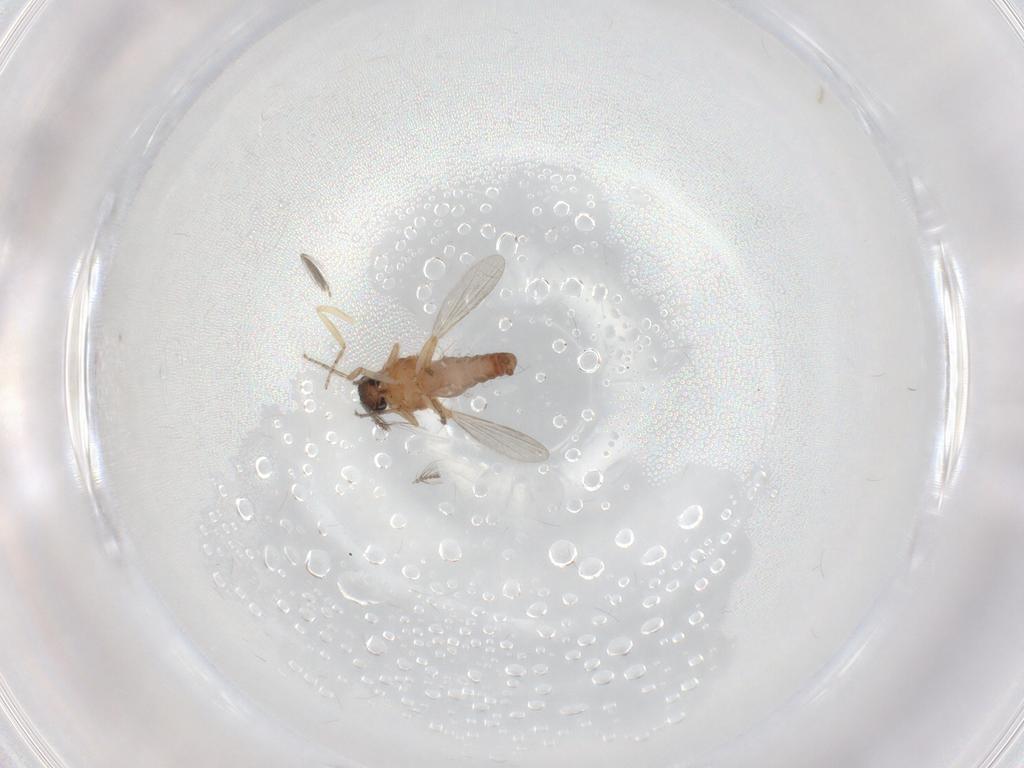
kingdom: Animalia
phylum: Arthropoda
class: Insecta
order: Diptera
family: Ceratopogonidae
